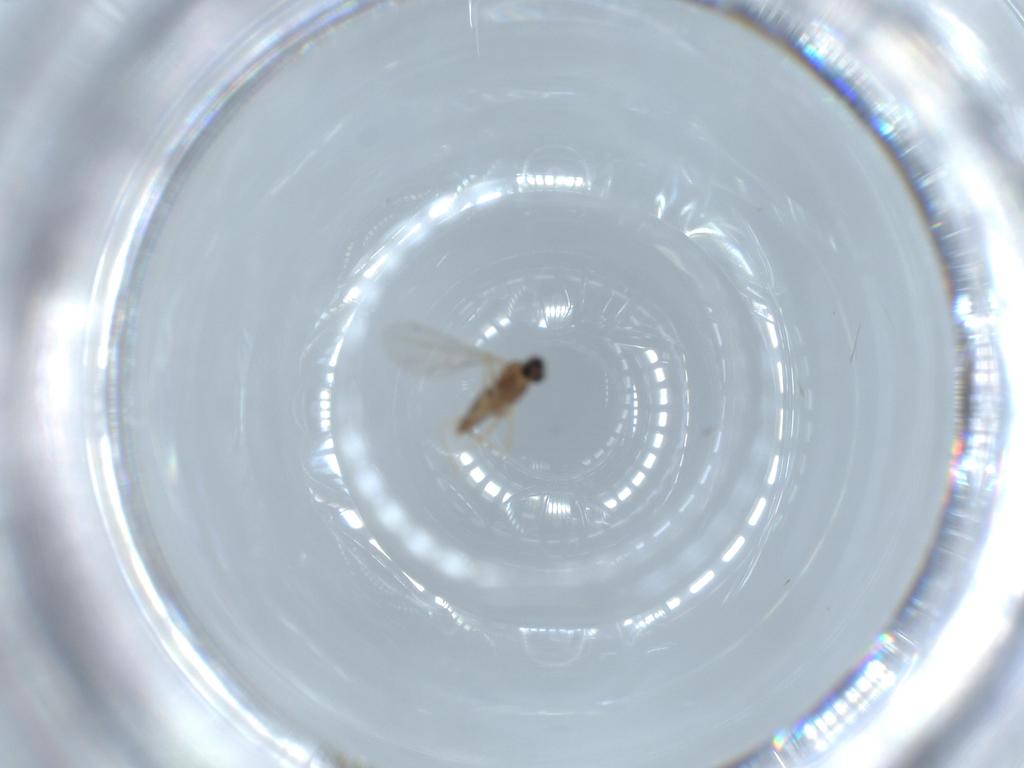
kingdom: Animalia
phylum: Arthropoda
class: Insecta
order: Diptera
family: Cecidomyiidae
